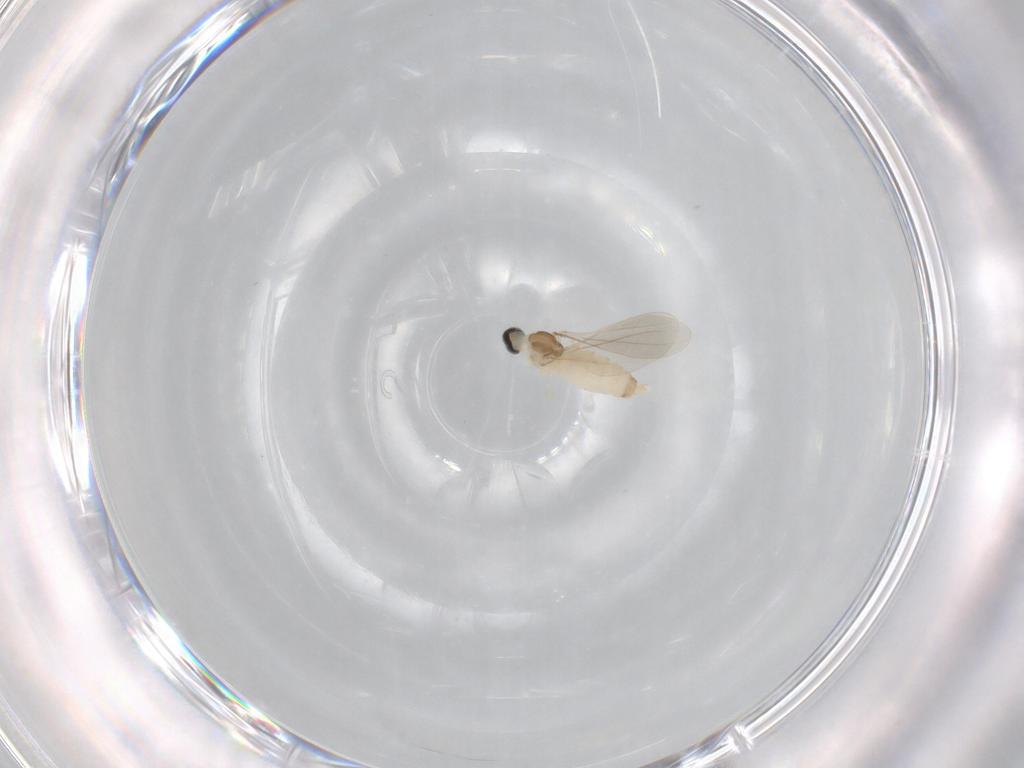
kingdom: Animalia
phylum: Arthropoda
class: Insecta
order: Diptera
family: Cecidomyiidae
